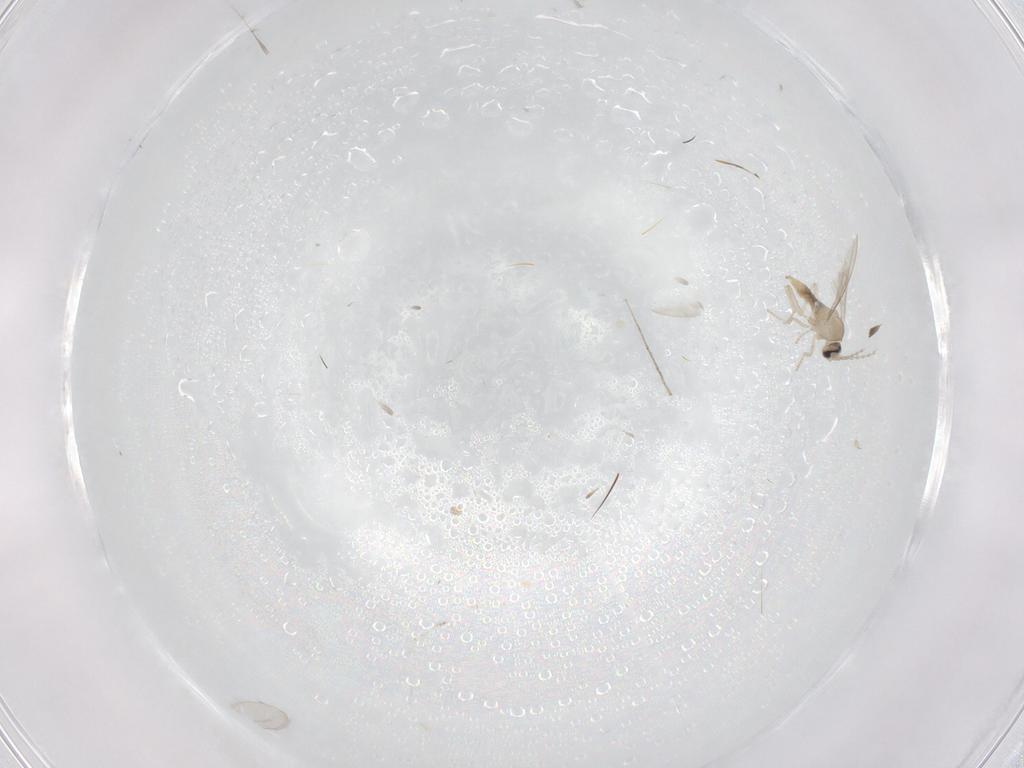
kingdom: Animalia
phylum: Arthropoda
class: Insecta
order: Diptera
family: Cecidomyiidae
